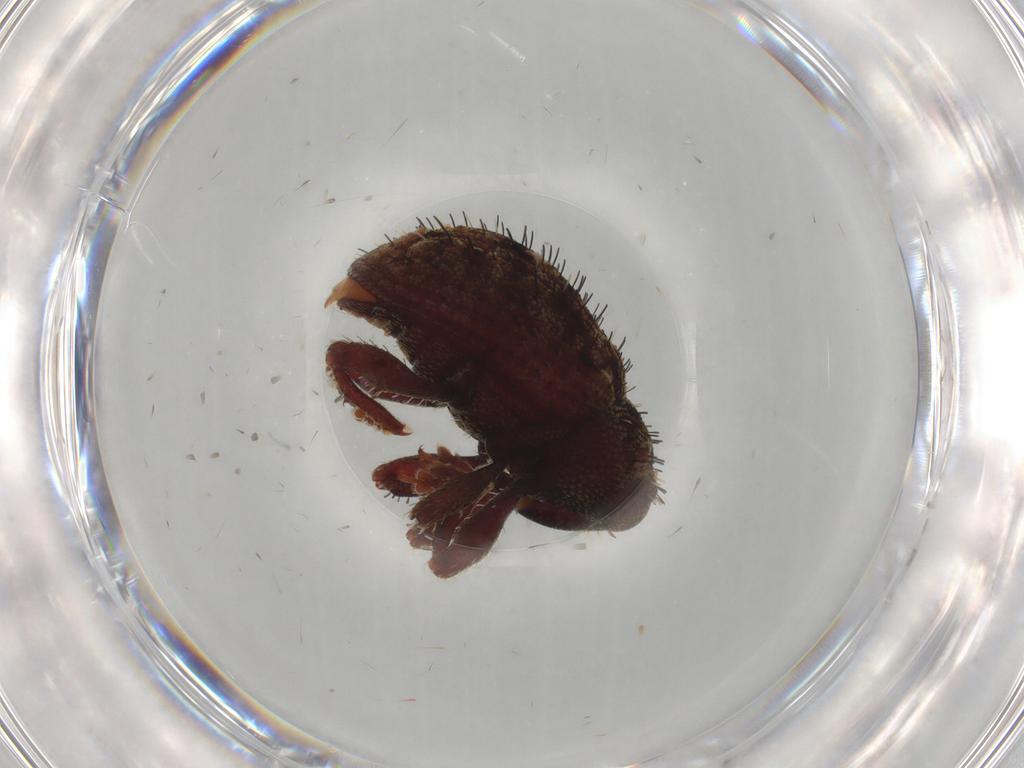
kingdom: Animalia
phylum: Arthropoda
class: Insecta
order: Coleoptera
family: Curculionidae
